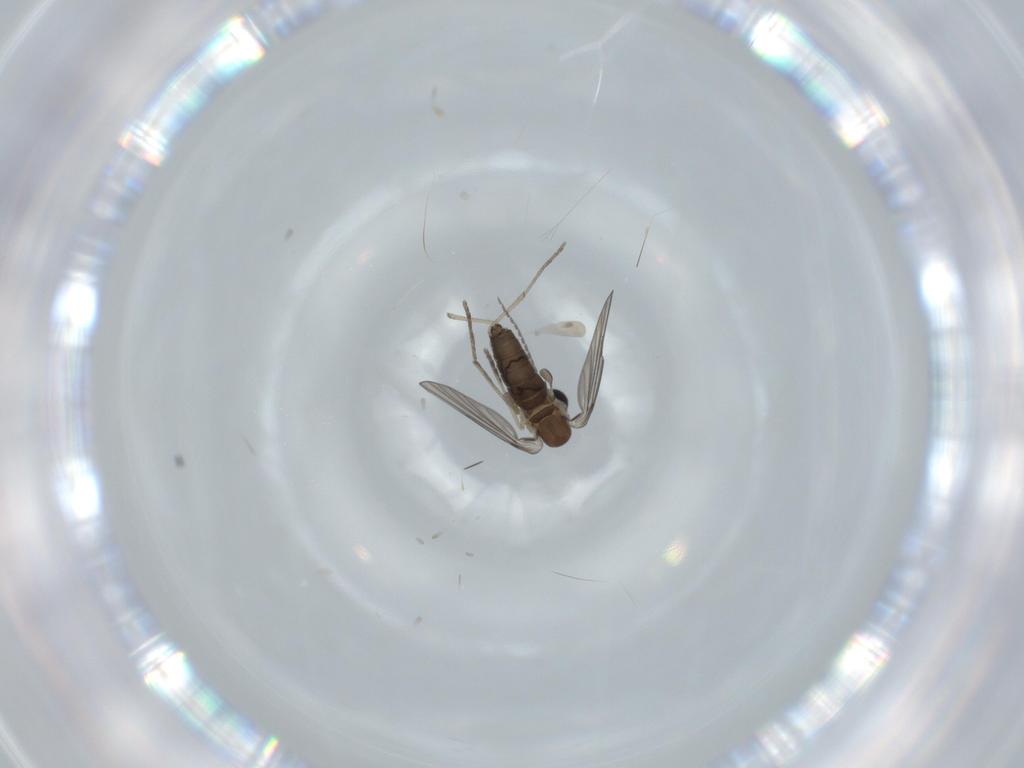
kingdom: Animalia
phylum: Arthropoda
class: Insecta
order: Diptera
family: Psychodidae
